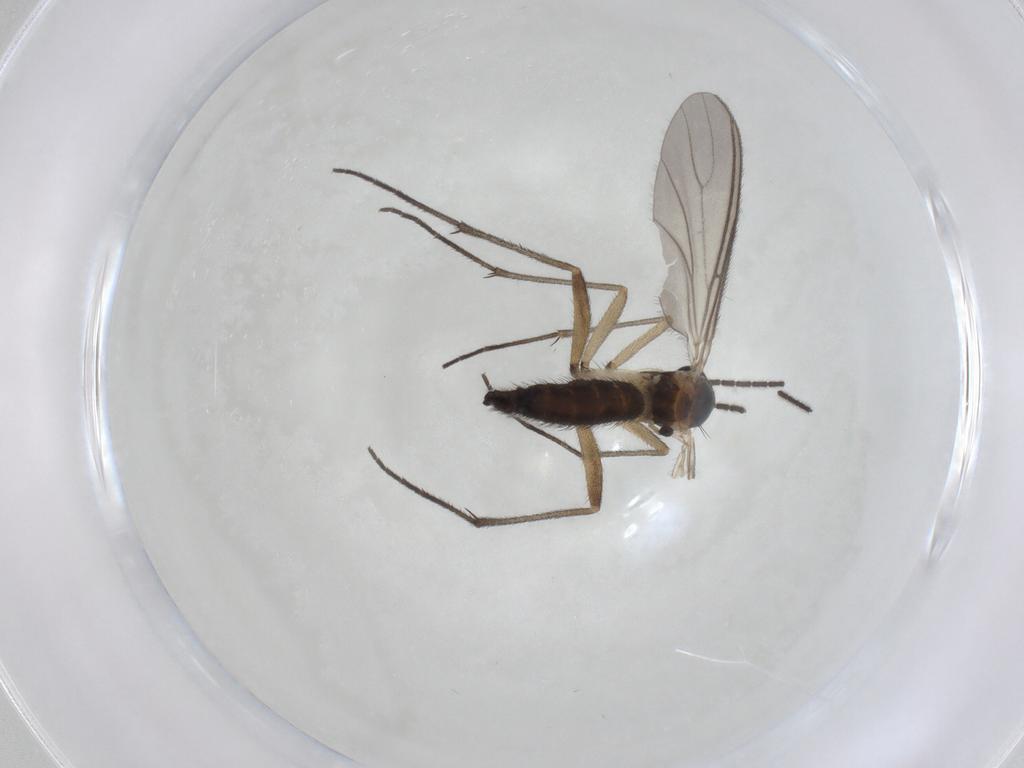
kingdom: Animalia
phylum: Arthropoda
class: Insecta
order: Diptera
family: Sciaridae
